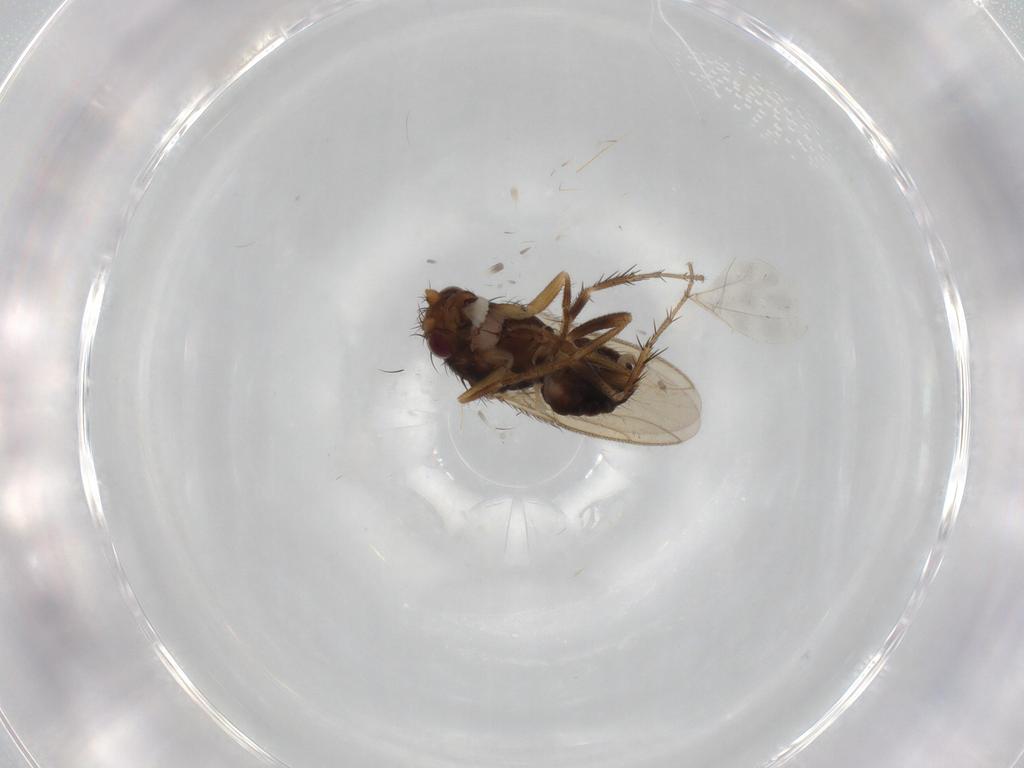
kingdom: Animalia
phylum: Arthropoda
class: Insecta
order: Diptera
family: Sphaeroceridae
